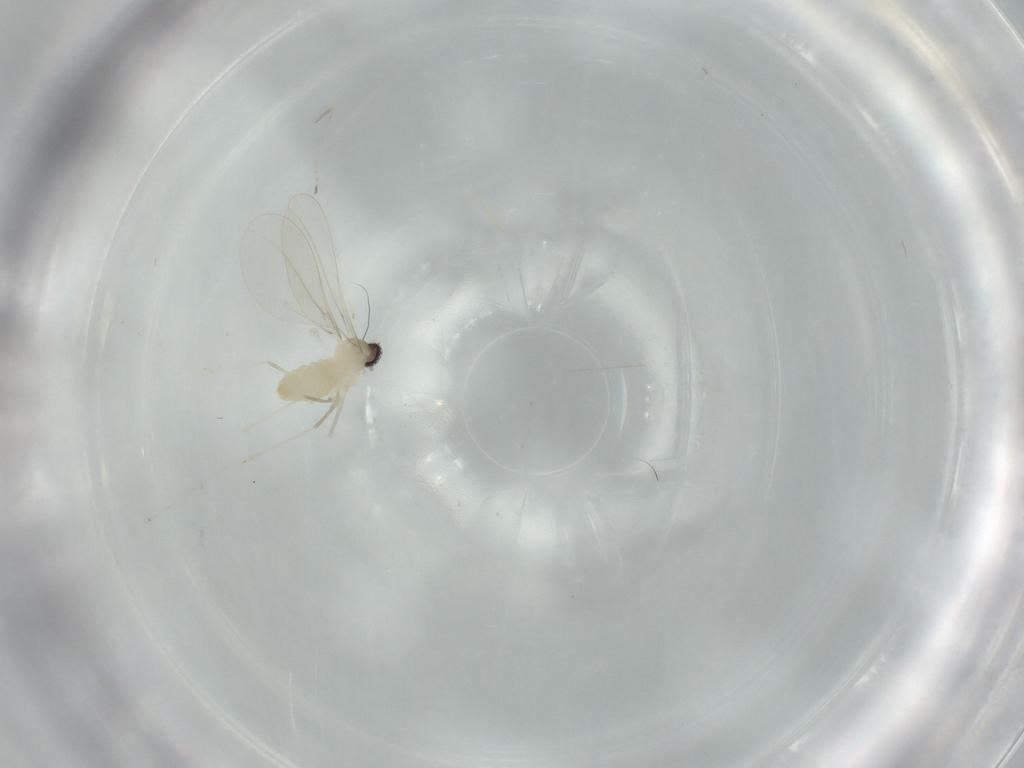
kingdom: Animalia
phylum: Arthropoda
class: Insecta
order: Diptera
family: Cecidomyiidae
